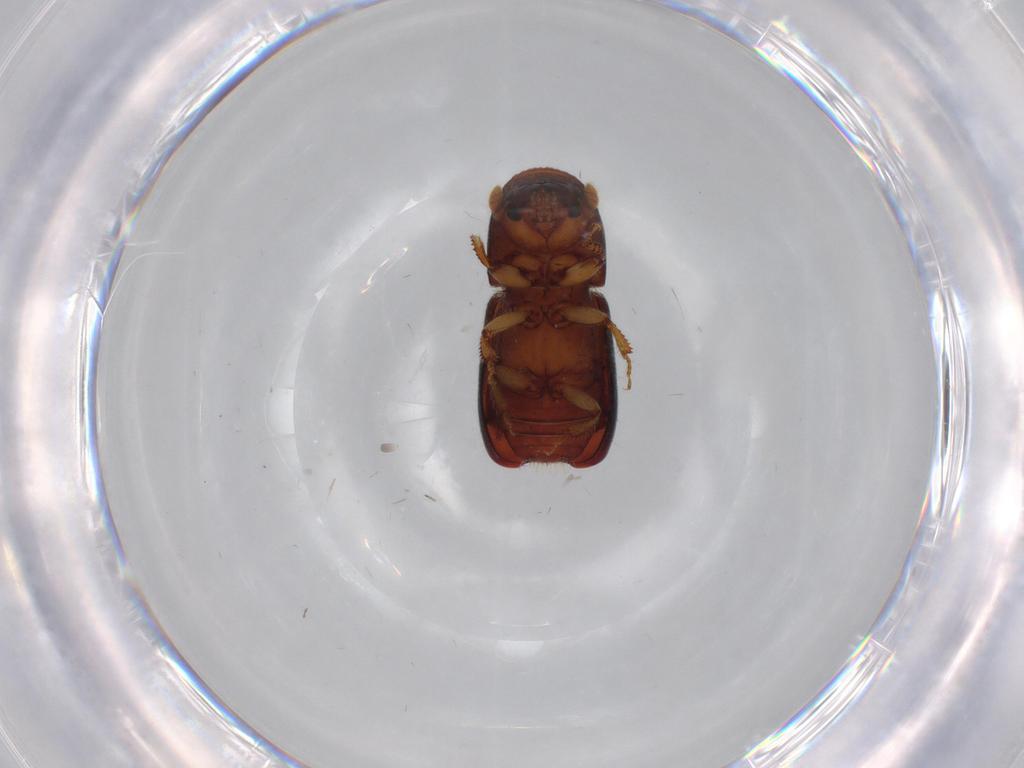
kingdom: Animalia
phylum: Arthropoda
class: Insecta
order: Coleoptera
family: Curculionidae
